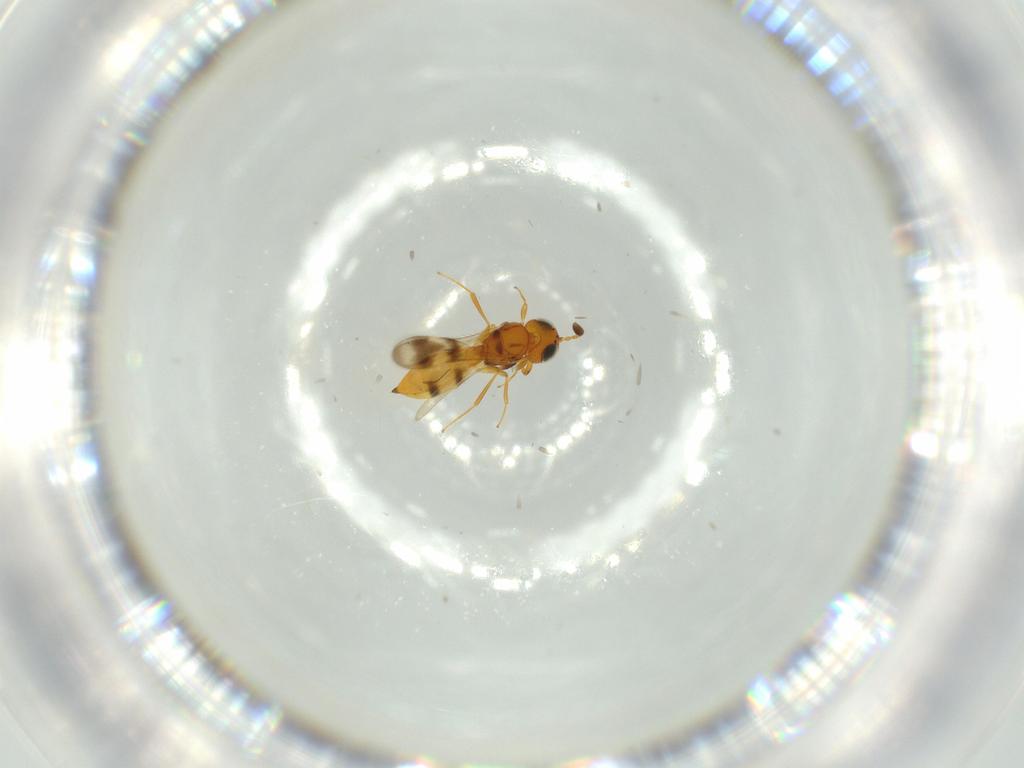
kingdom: Animalia
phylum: Arthropoda
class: Insecta
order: Hymenoptera
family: Scelionidae
